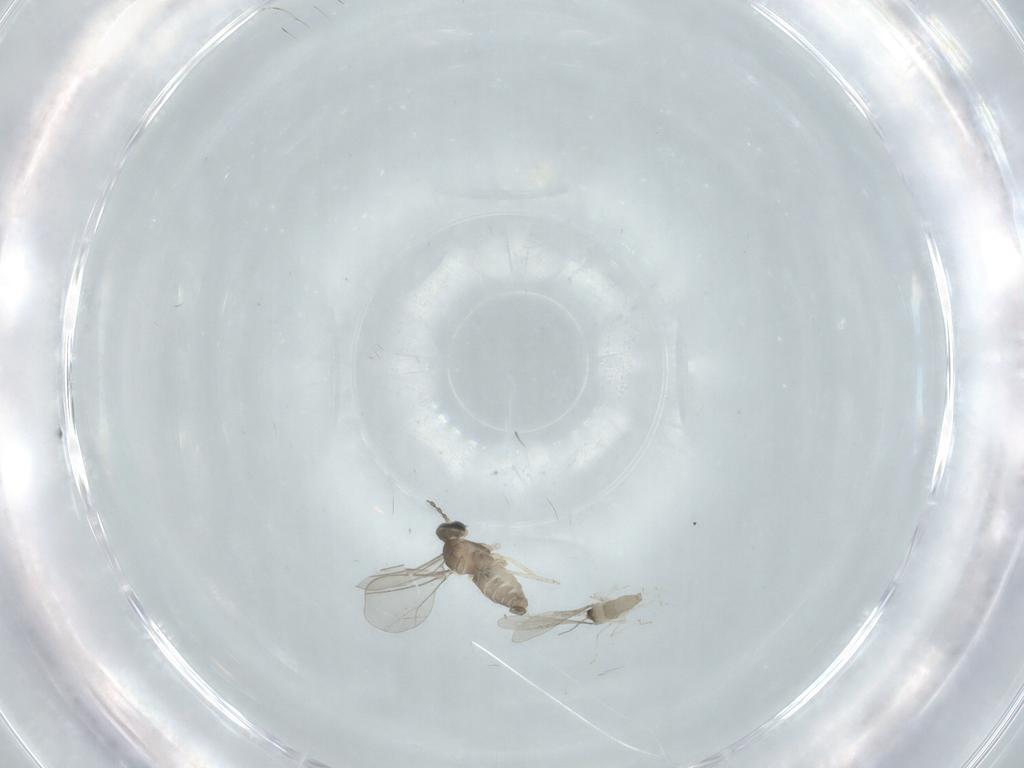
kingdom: Animalia
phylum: Arthropoda
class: Insecta
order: Diptera
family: Cecidomyiidae
